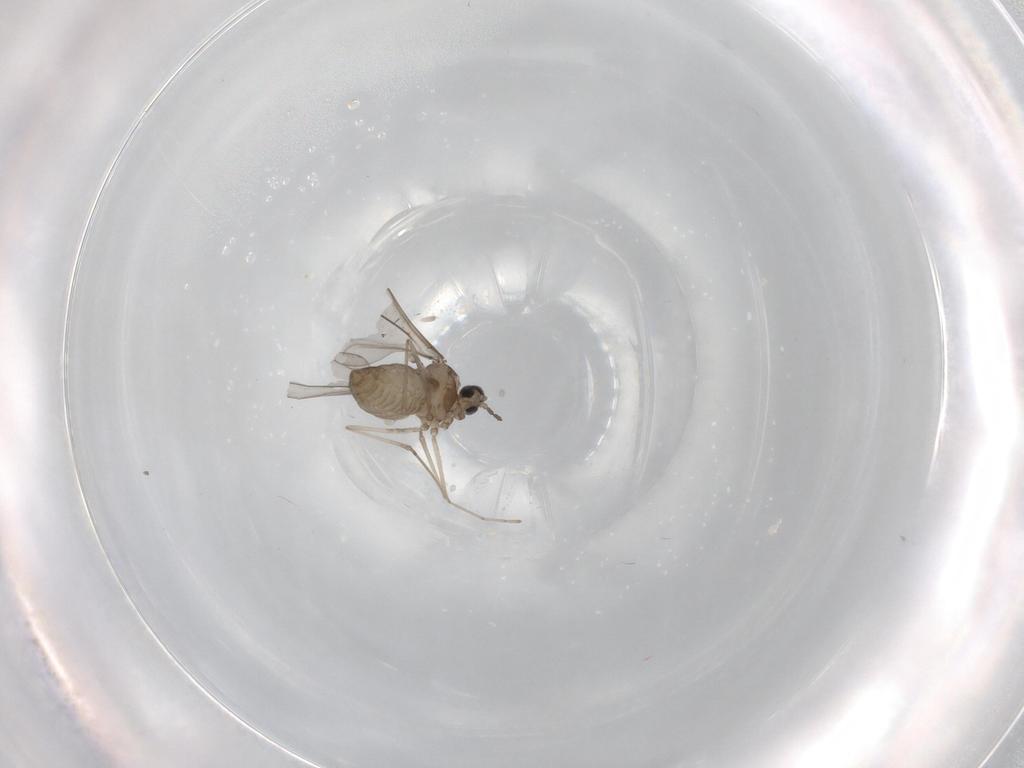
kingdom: Animalia
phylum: Arthropoda
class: Insecta
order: Diptera
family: Cecidomyiidae
